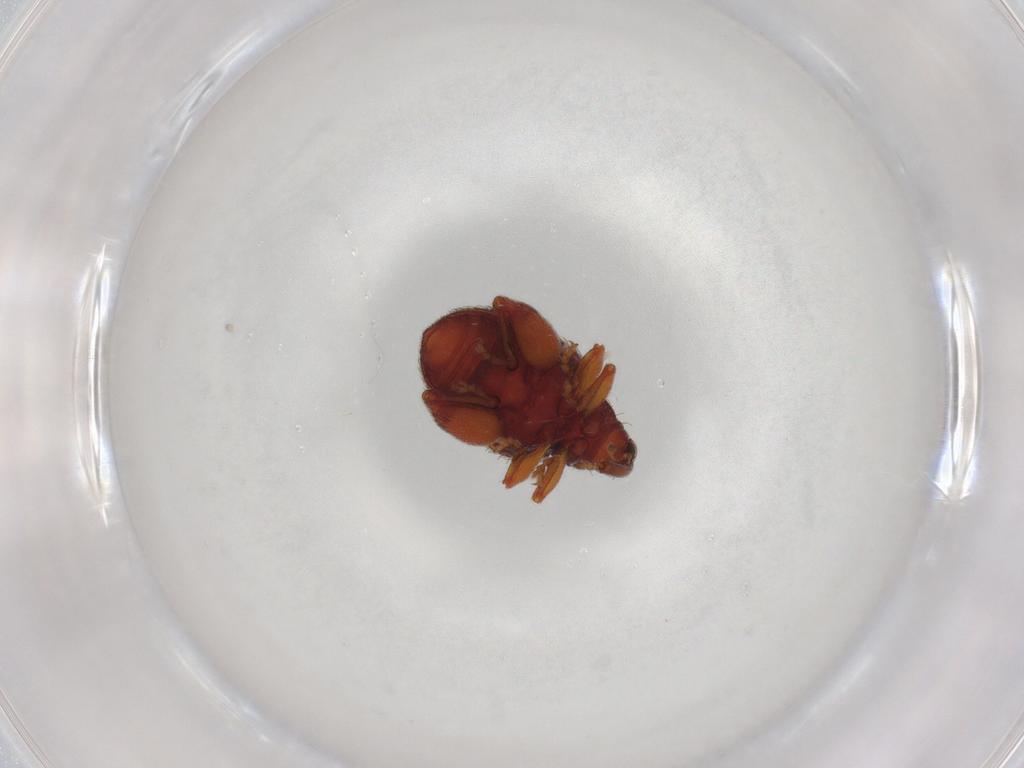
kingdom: Animalia
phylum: Arthropoda
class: Insecta
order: Coleoptera
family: Curculionidae
